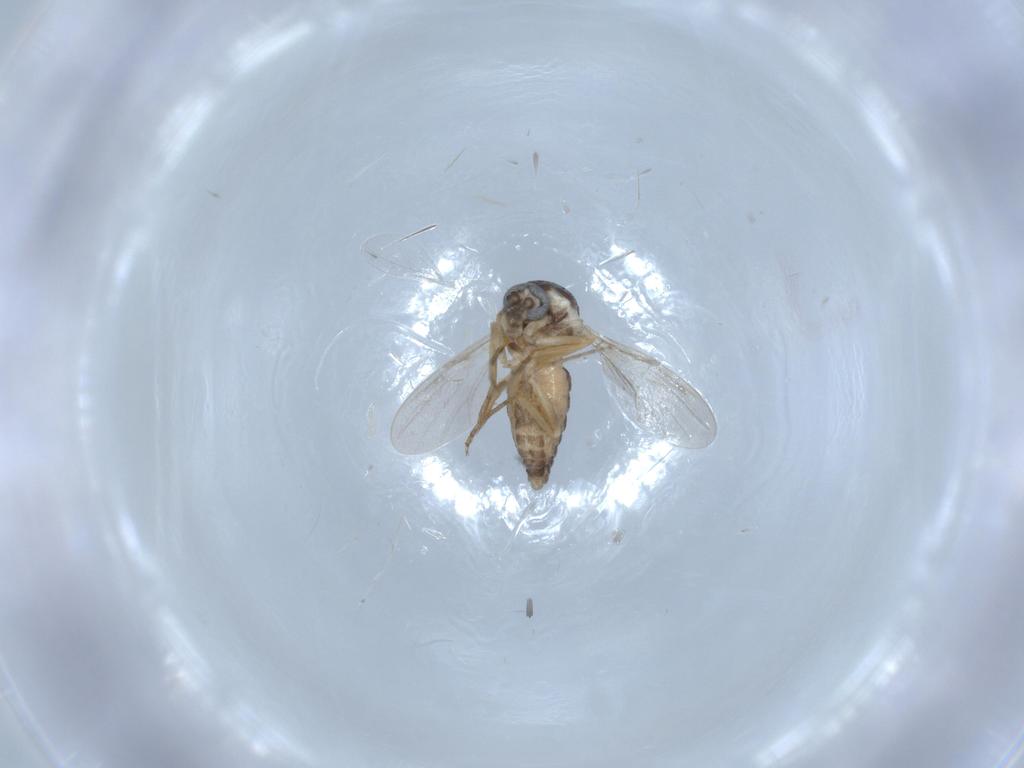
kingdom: Animalia
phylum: Arthropoda
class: Insecta
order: Diptera
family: Ceratopogonidae
